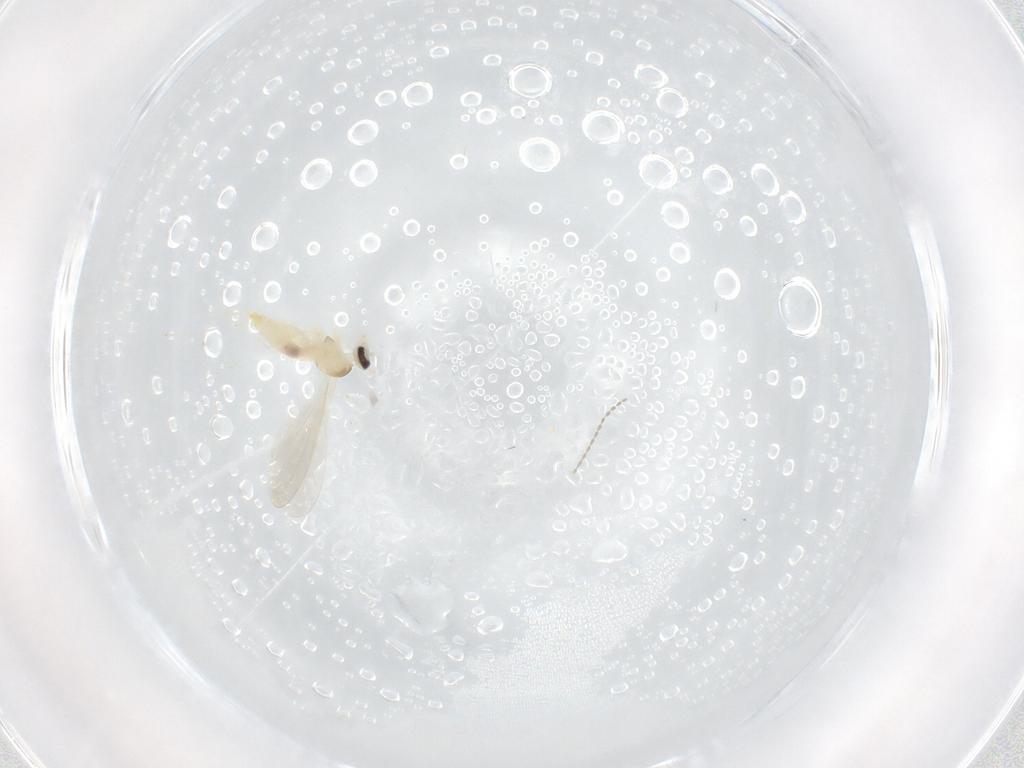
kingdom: Animalia
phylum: Arthropoda
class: Insecta
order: Diptera
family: Cecidomyiidae
